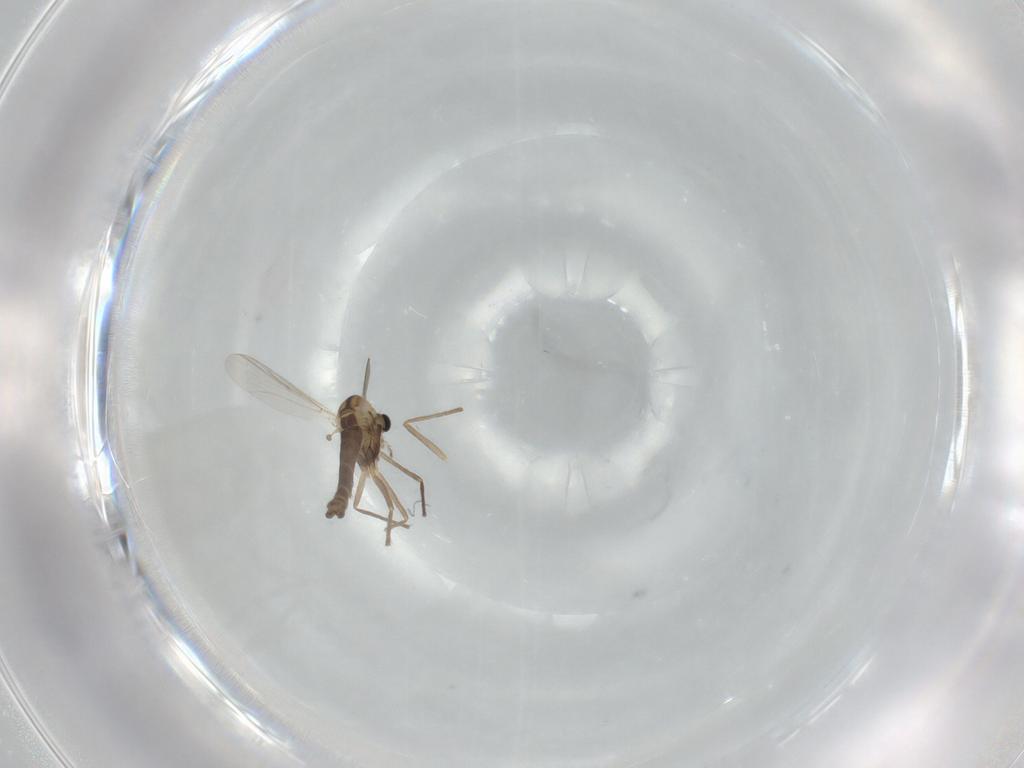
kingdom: Animalia
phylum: Arthropoda
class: Insecta
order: Diptera
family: Chironomidae
